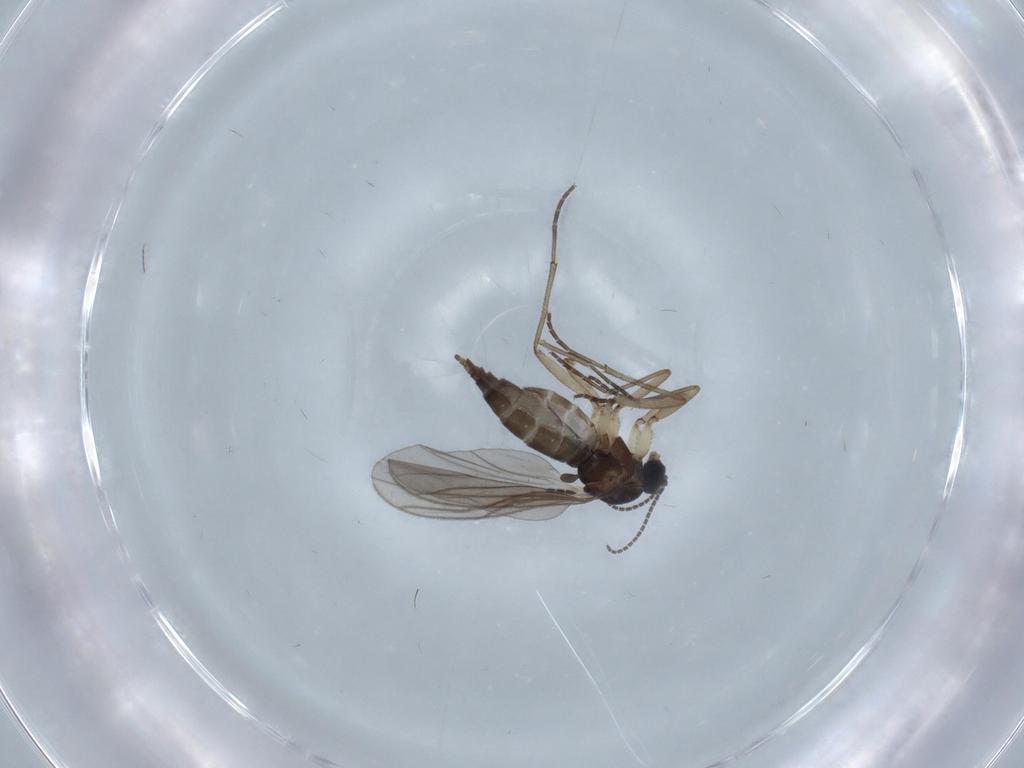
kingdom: Animalia
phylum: Arthropoda
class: Insecta
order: Diptera
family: Sciaridae
